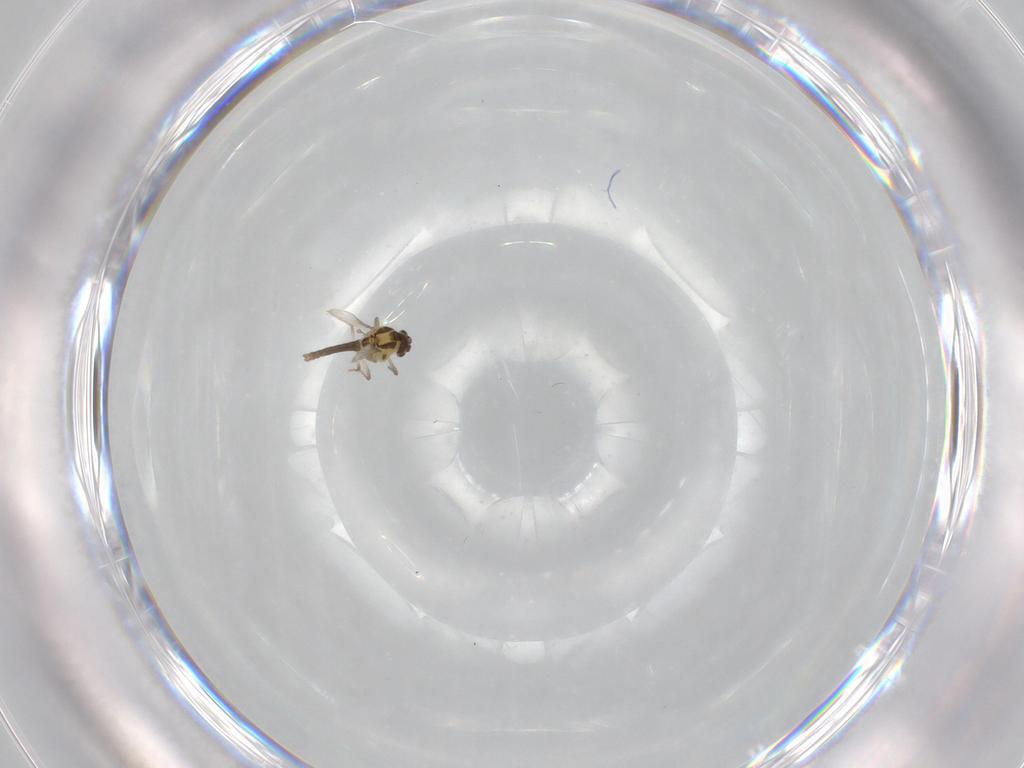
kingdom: Animalia
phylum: Arthropoda
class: Insecta
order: Diptera
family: Chironomidae
